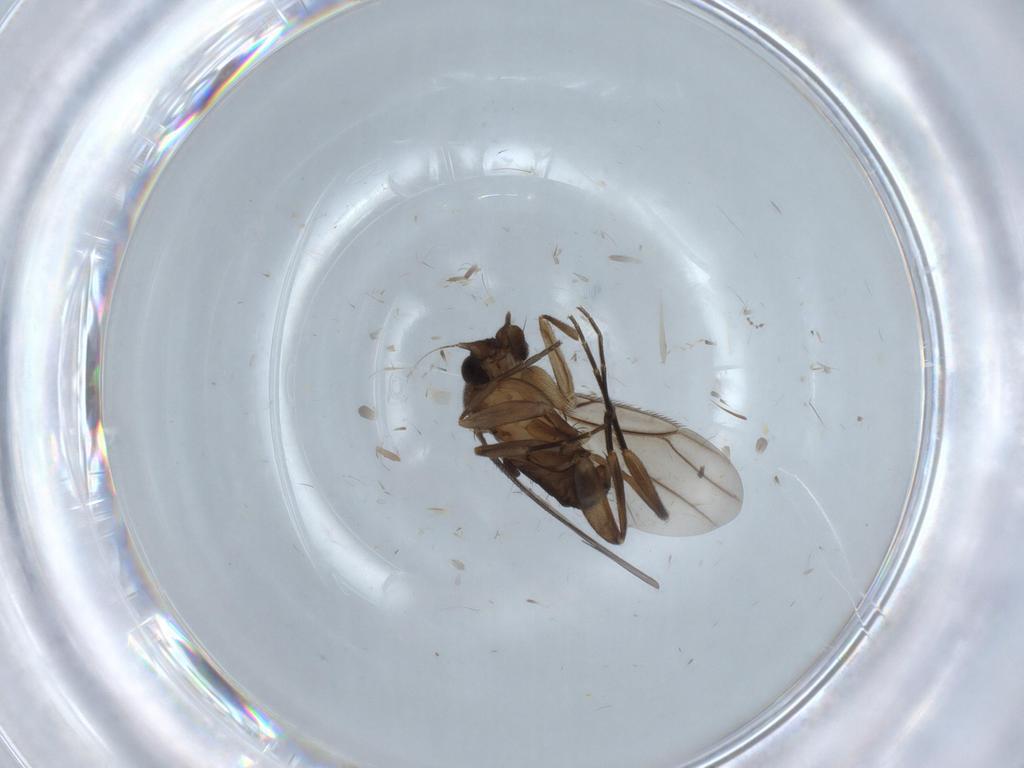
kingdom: Animalia
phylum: Arthropoda
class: Insecta
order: Diptera
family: Phoridae
